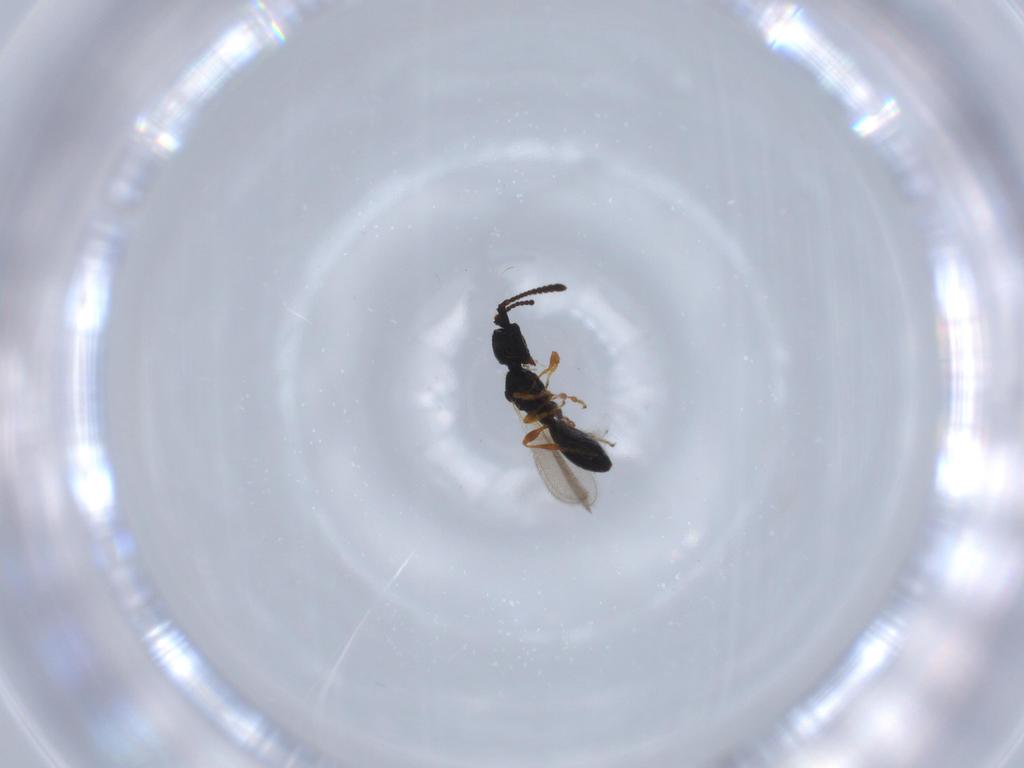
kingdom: Animalia
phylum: Arthropoda
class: Insecta
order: Hymenoptera
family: Diapriidae
